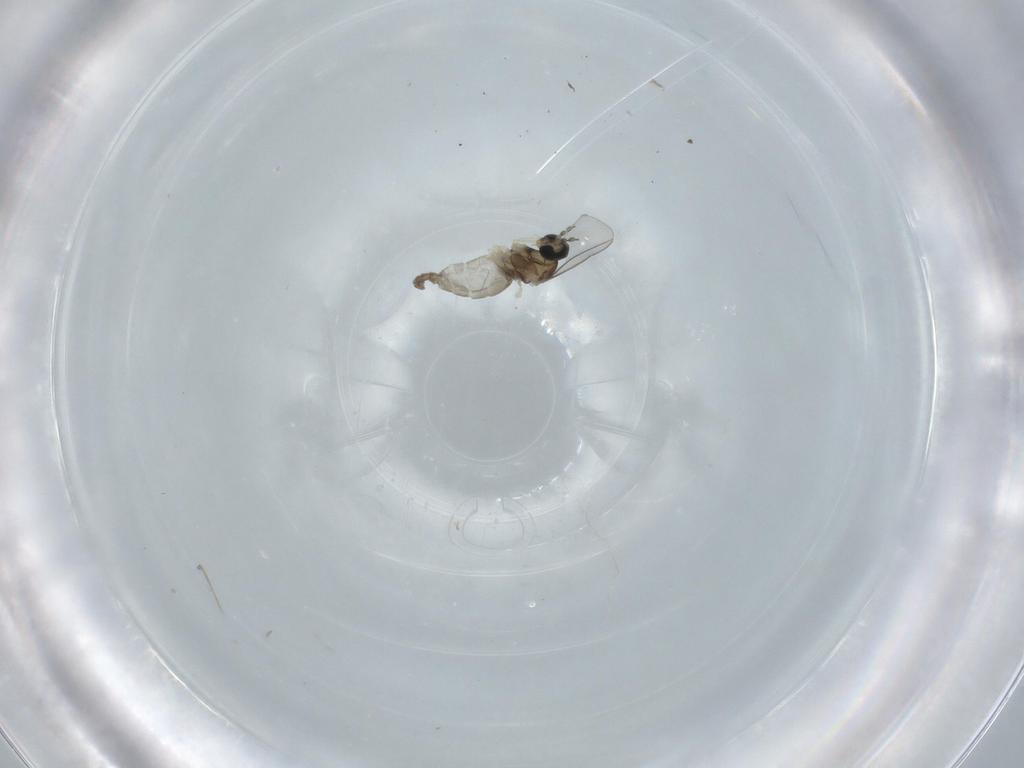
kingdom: Animalia
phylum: Arthropoda
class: Insecta
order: Diptera
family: Cecidomyiidae
